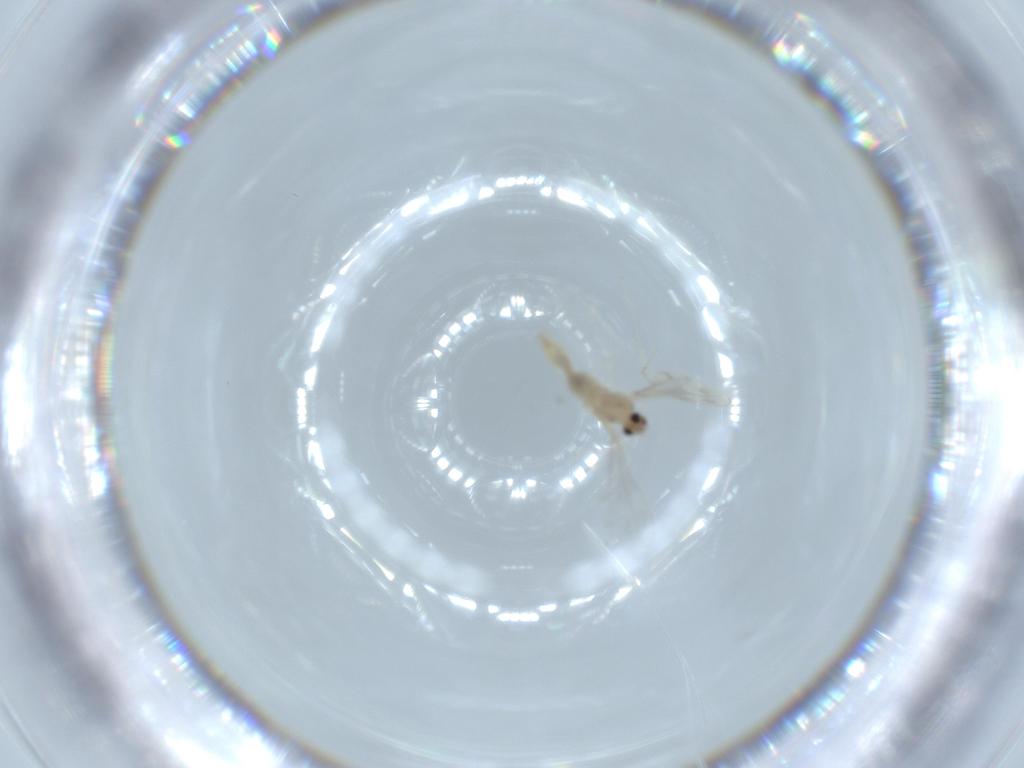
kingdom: Animalia
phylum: Arthropoda
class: Insecta
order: Diptera
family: Cecidomyiidae
